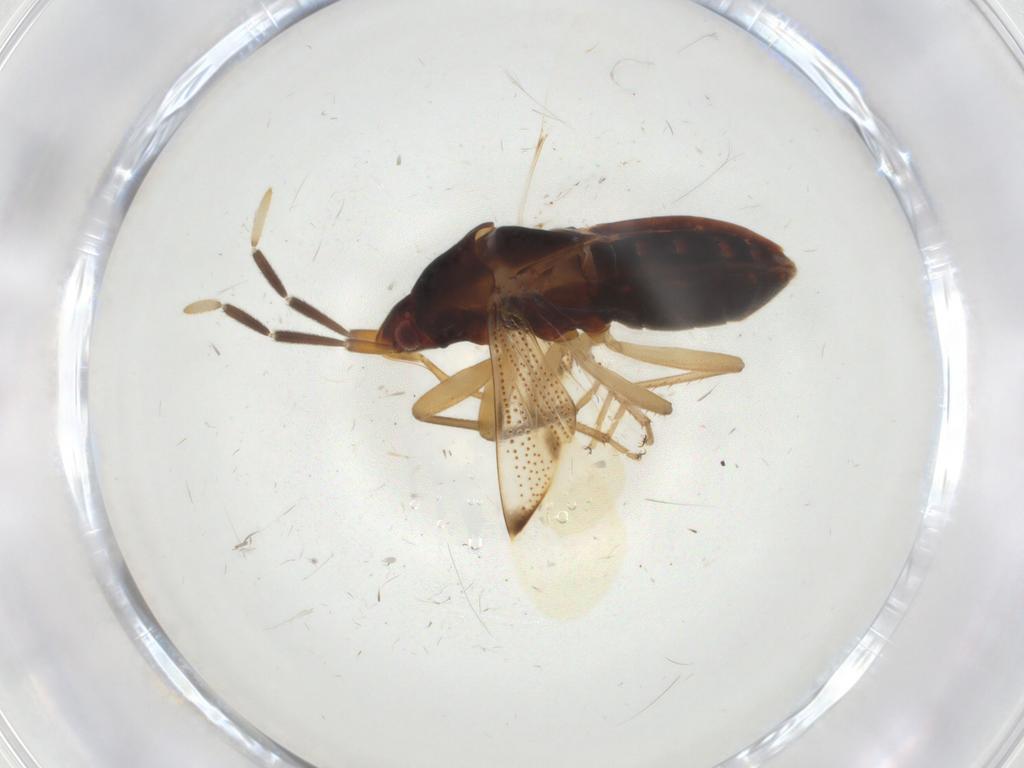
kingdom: Animalia
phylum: Arthropoda
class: Insecta
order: Hemiptera
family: Rhyparochromidae
